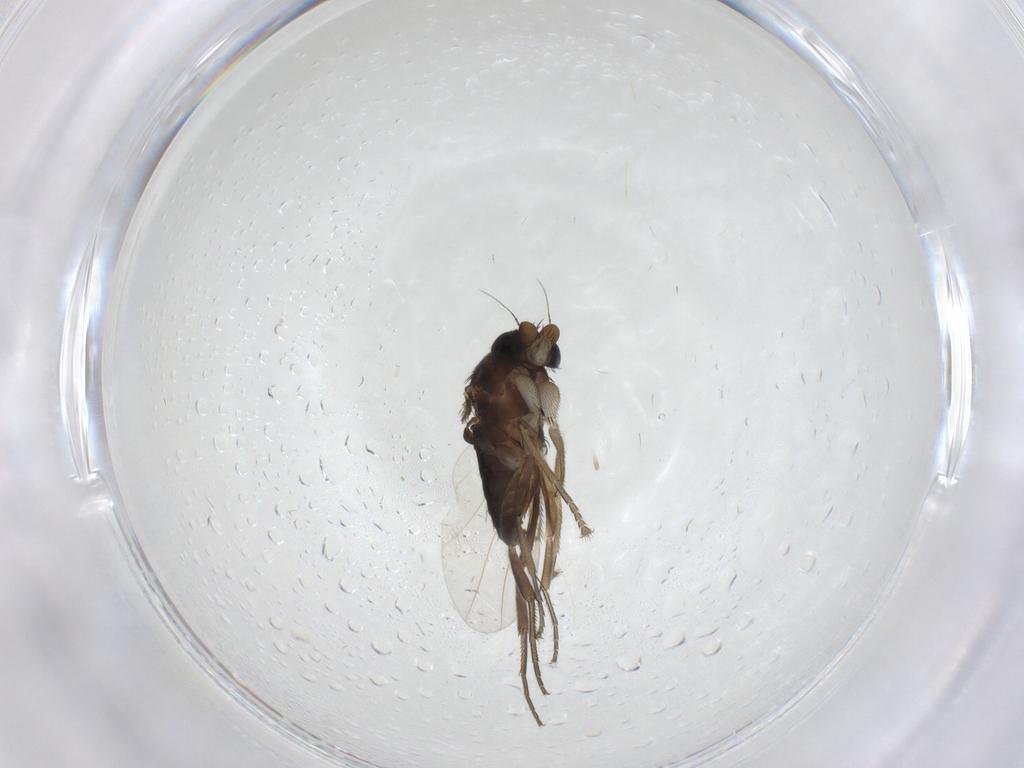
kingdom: Animalia
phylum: Arthropoda
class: Insecta
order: Diptera
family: Phoridae
